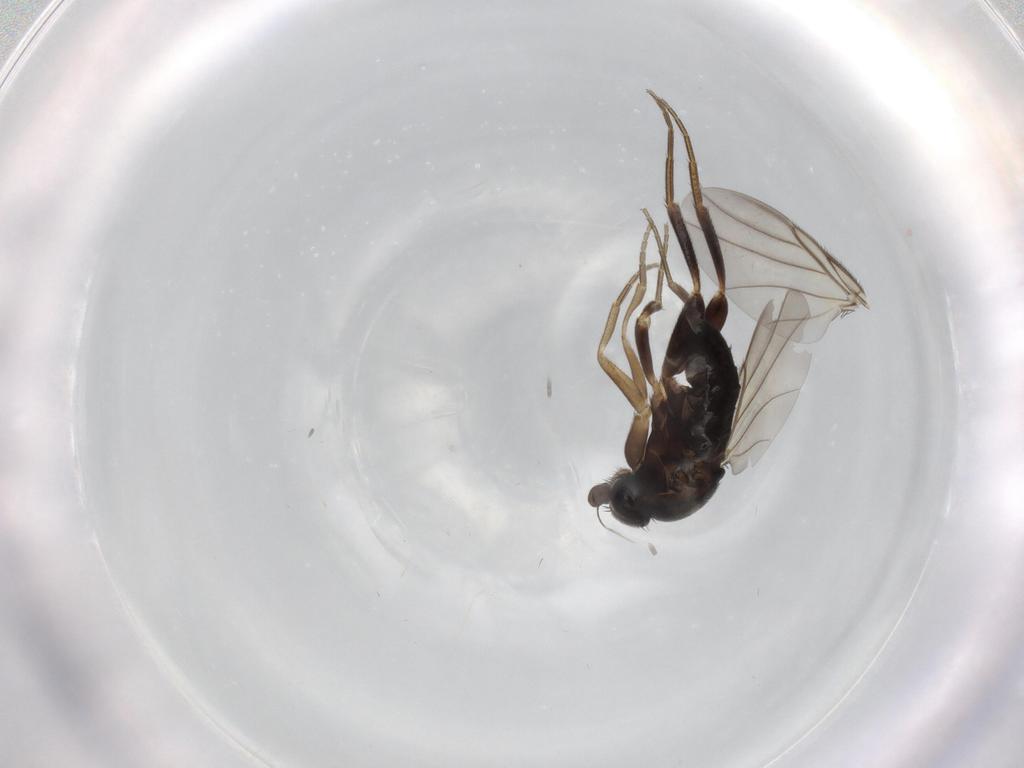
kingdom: Animalia
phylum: Arthropoda
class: Insecta
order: Diptera
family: Phoridae
